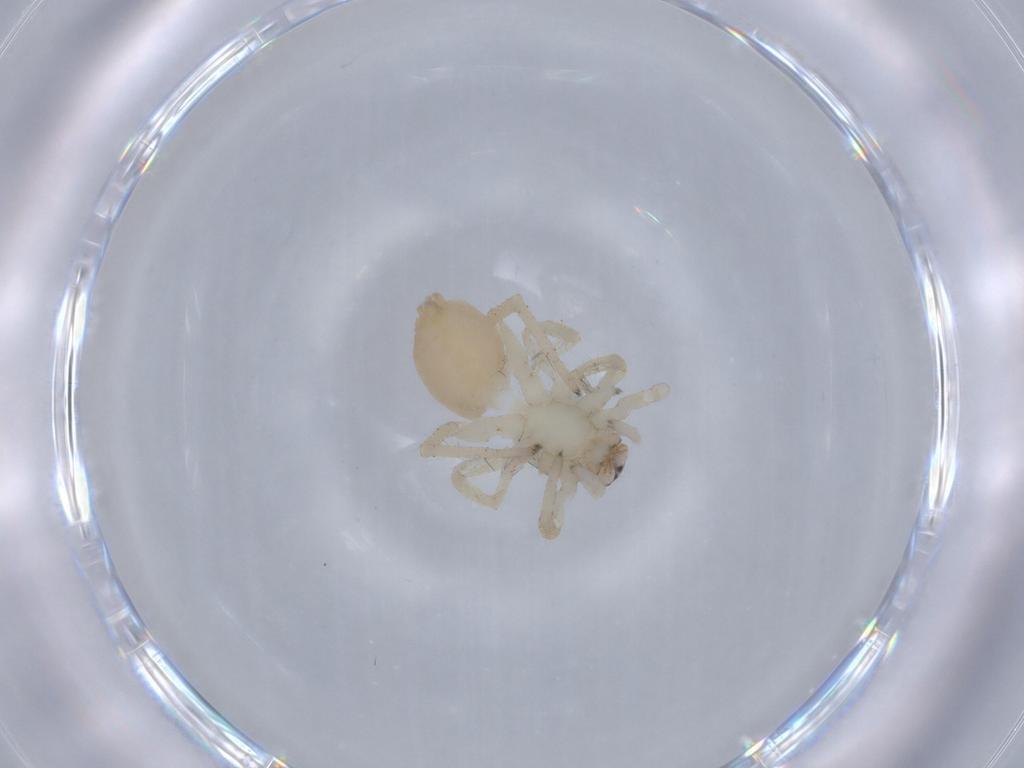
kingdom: Animalia
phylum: Arthropoda
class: Arachnida
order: Araneae
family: Clubionidae
